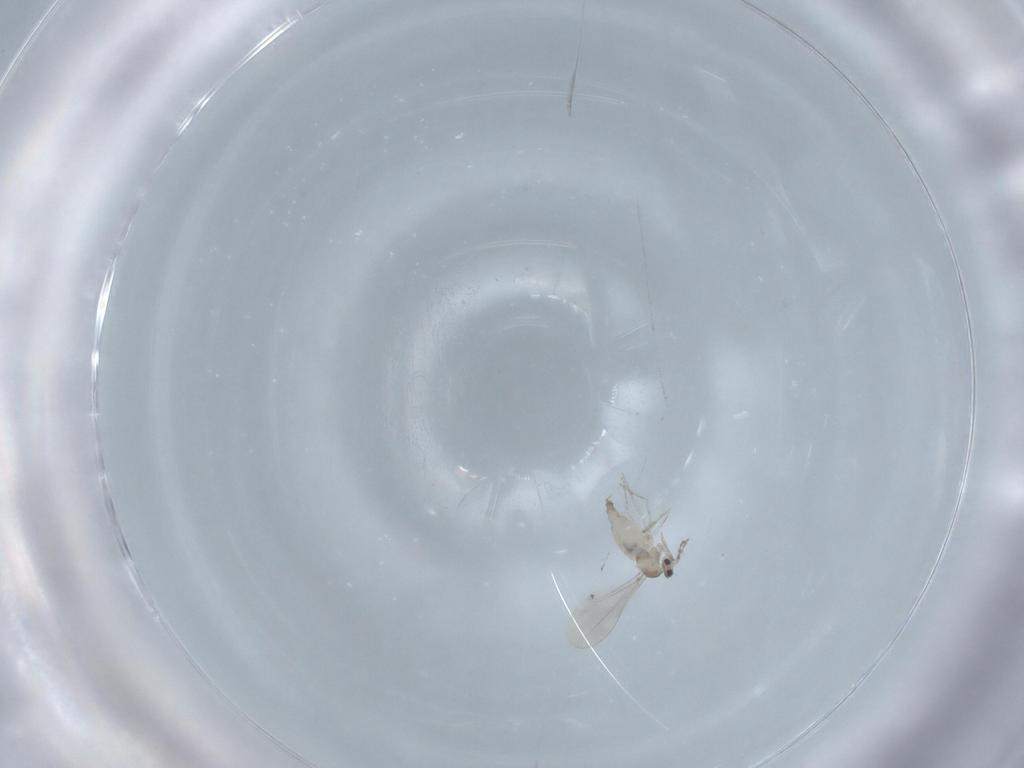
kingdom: Animalia
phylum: Arthropoda
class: Insecta
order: Diptera
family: Cecidomyiidae
